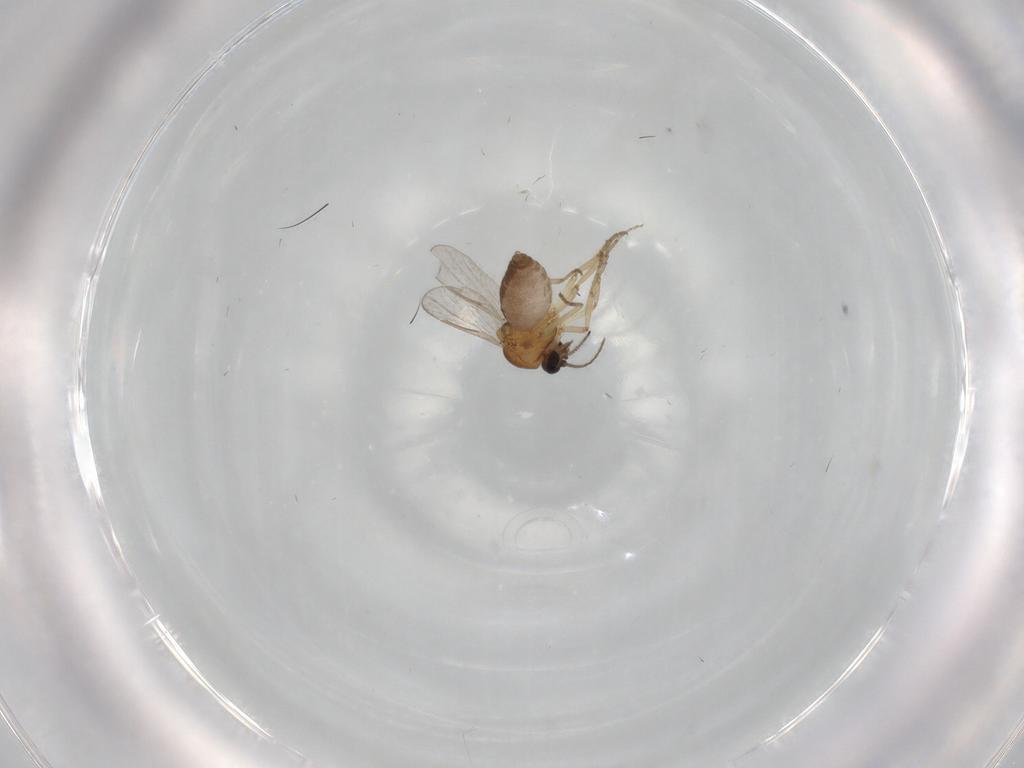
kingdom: Animalia
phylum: Arthropoda
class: Insecta
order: Diptera
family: Ceratopogonidae
